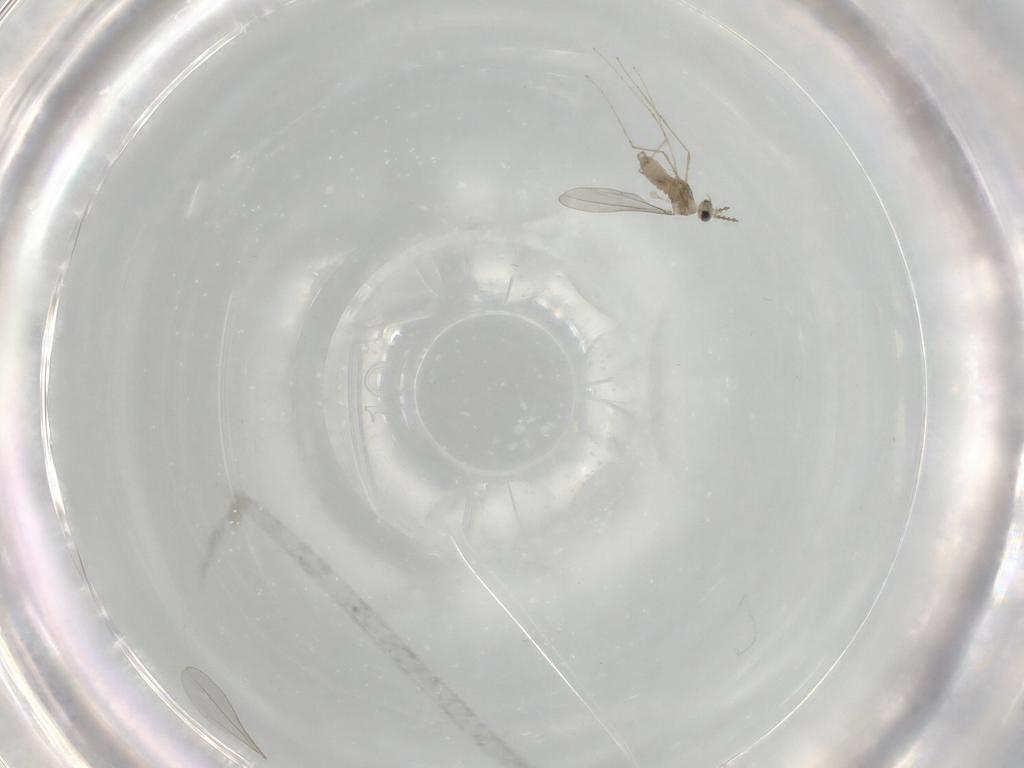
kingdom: Animalia
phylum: Arthropoda
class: Insecta
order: Diptera
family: Cecidomyiidae
